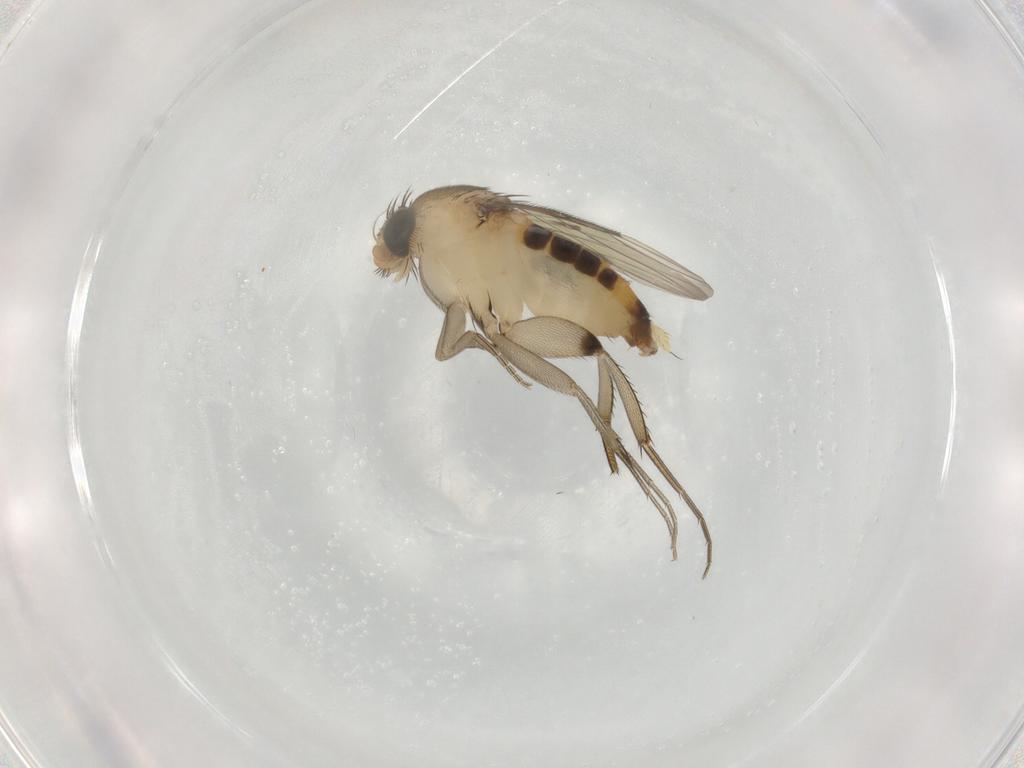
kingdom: Animalia
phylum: Arthropoda
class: Insecta
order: Diptera
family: Phoridae
